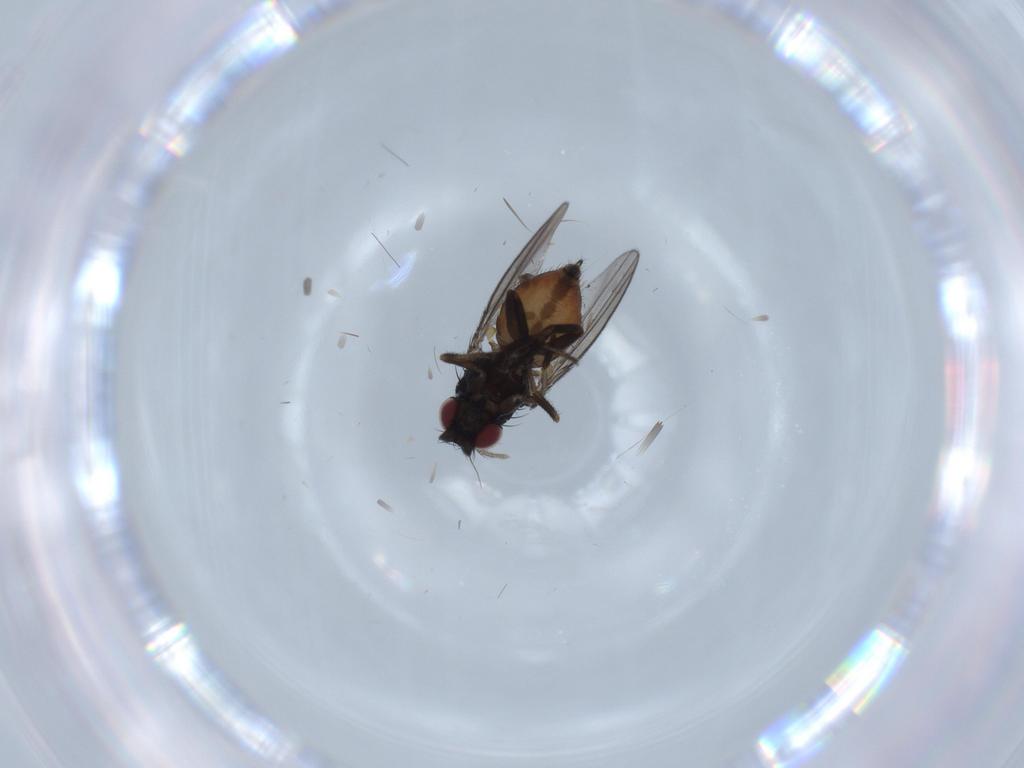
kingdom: Animalia
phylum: Arthropoda
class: Insecta
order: Diptera
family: Milichiidae
